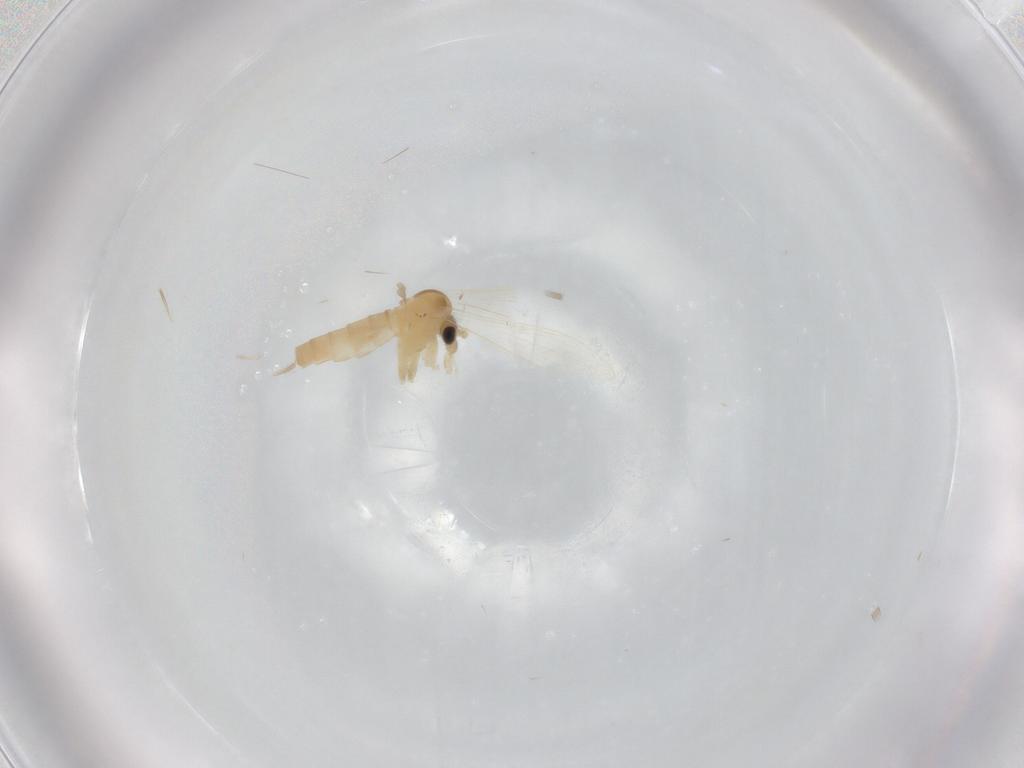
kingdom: Animalia
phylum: Arthropoda
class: Insecta
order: Diptera
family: Psychodidae
